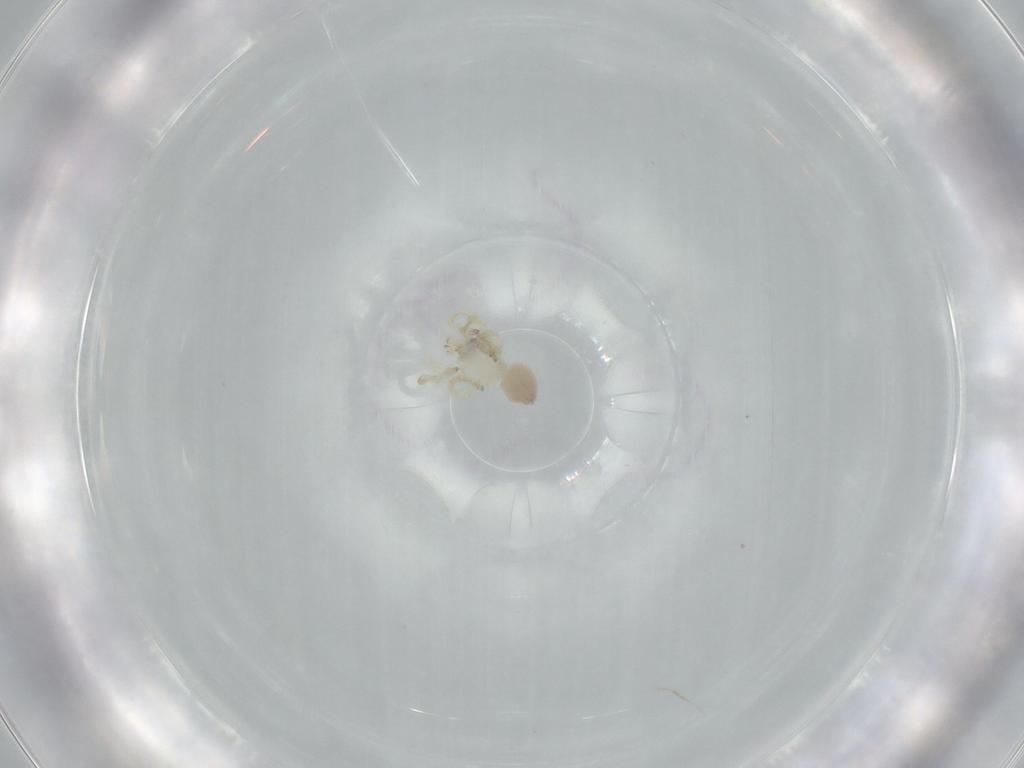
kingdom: Animalia
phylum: Arthropoda
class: Arachnida
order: Araneae
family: Oonopidae
